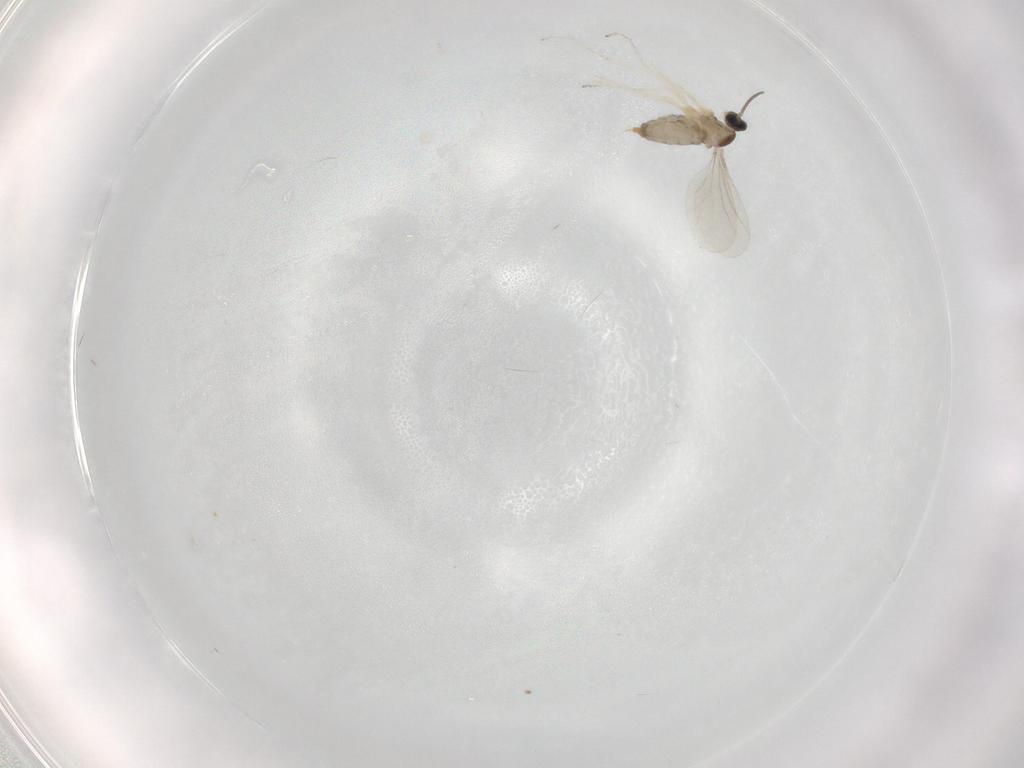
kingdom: Animalia
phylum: Arthropoda
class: Insecta
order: Diptera
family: Cecidomyiidae
